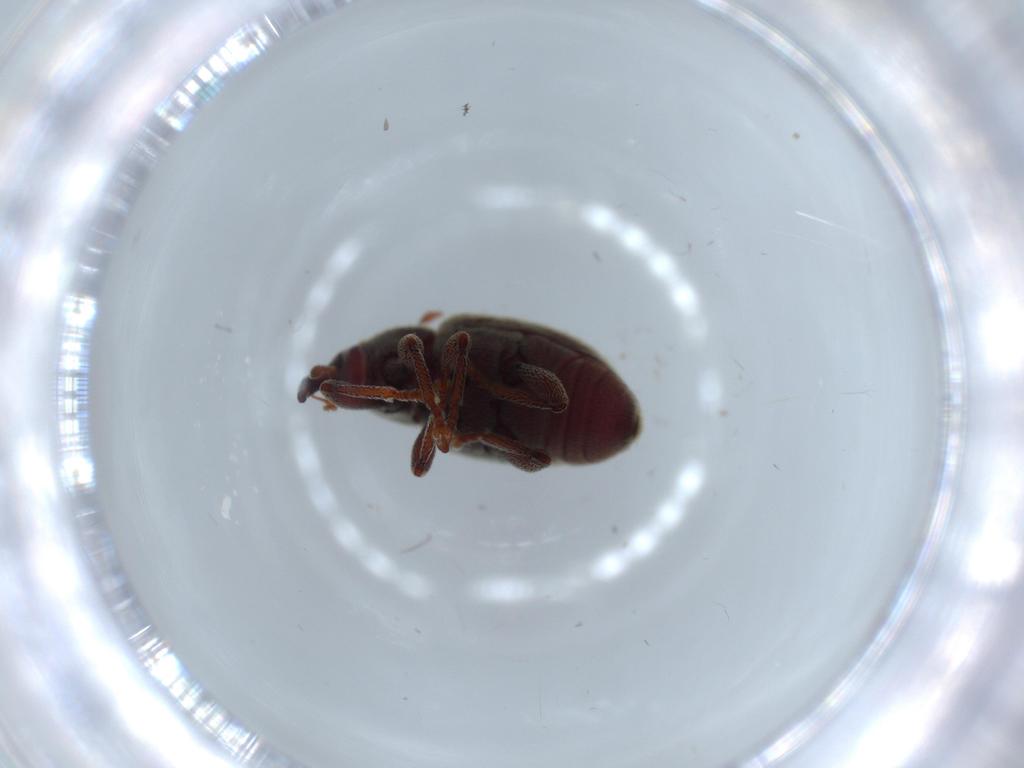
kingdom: Animalia
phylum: Arthropoda
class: Insecta
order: Coleoptera
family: Curculionidae
